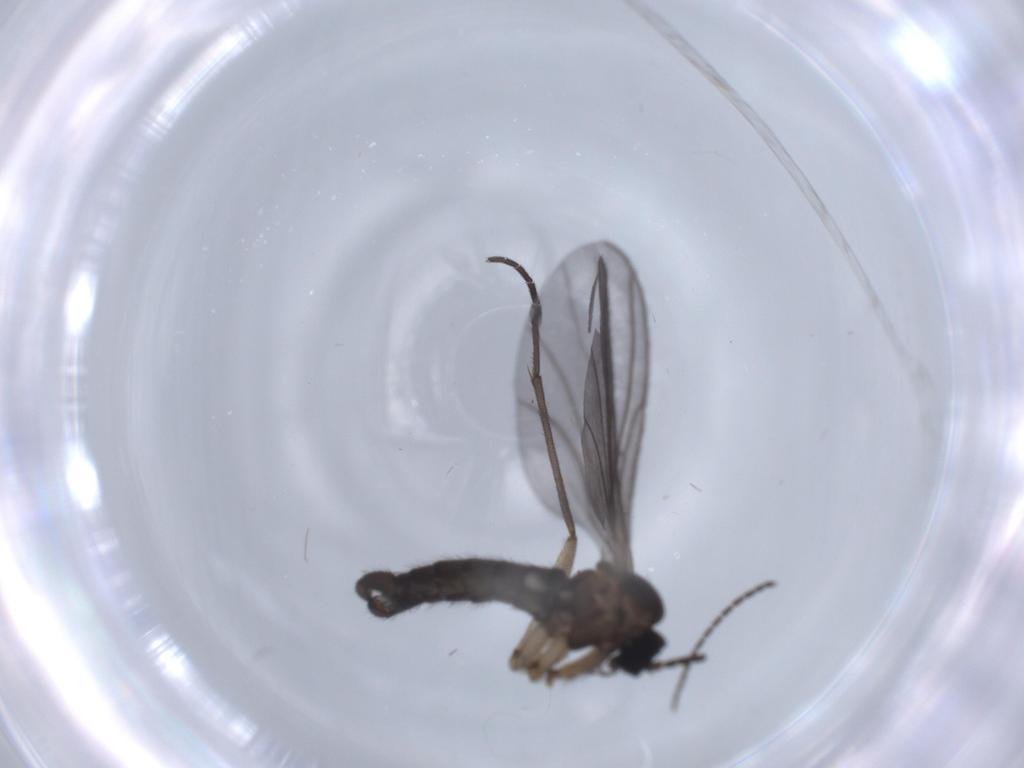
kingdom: Animalia
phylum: Arthropoda
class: Insecta
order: Diptera
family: Sciaridae
